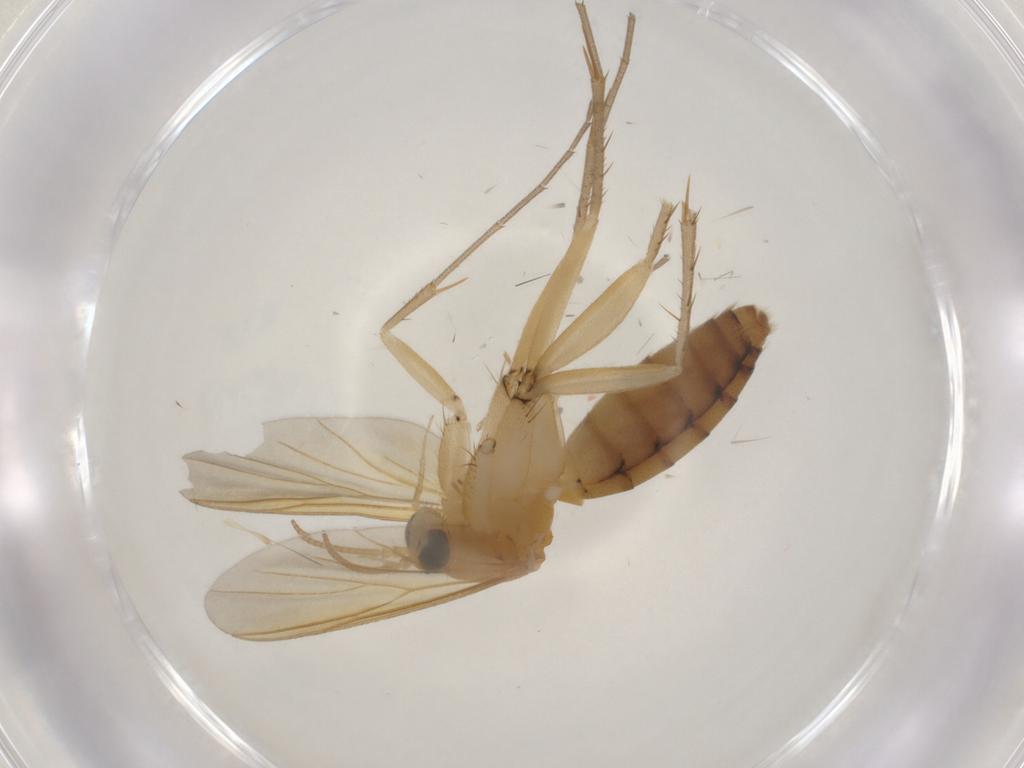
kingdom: Animalia
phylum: Arthropoda
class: Insecta
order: Diptera
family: Mycetophilidae
